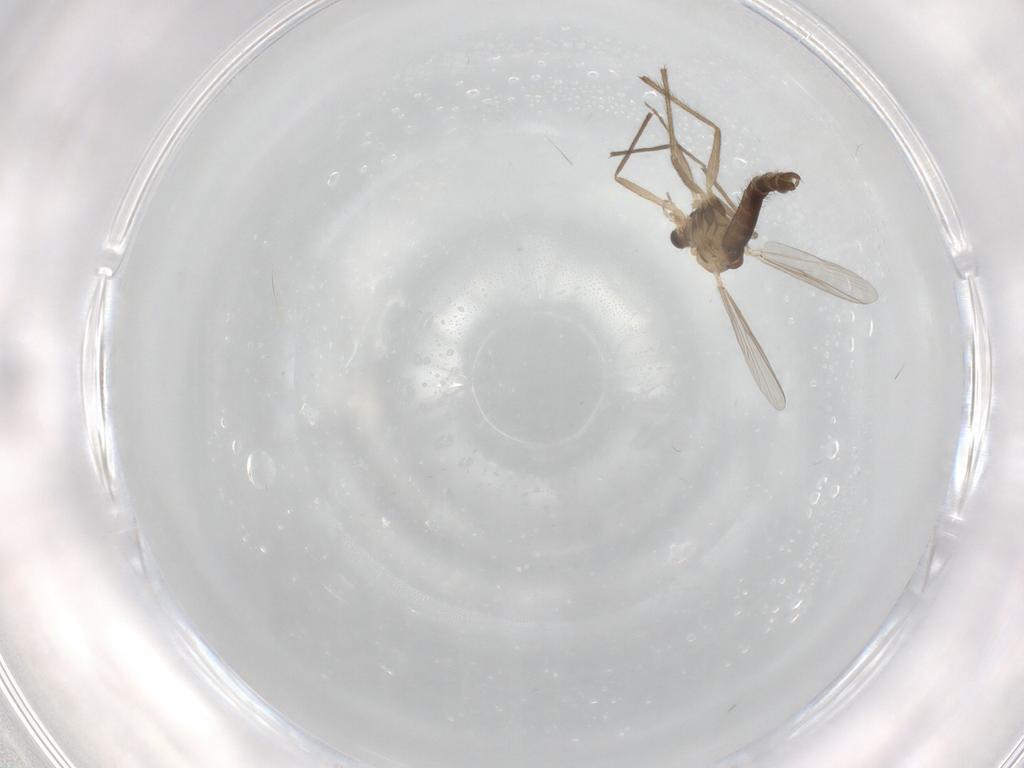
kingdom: Animalia
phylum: Arthropoda
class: Insecta
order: Diptera
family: Chironomidae
